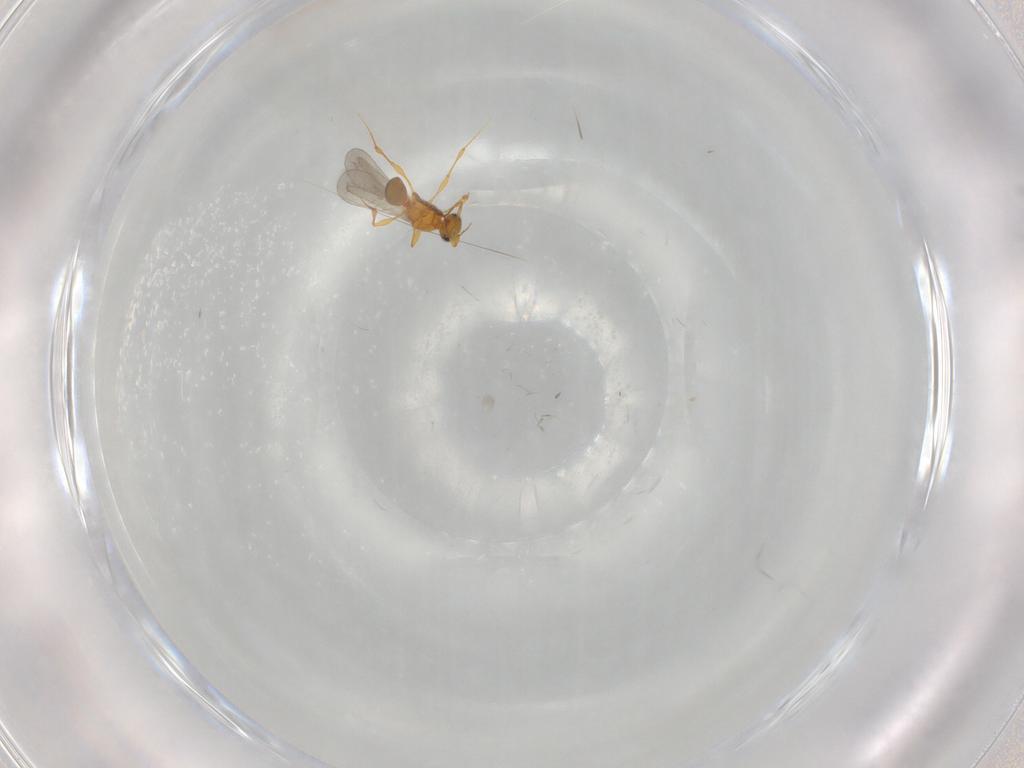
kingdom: Animalia
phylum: Arthropoda
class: Insecta
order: Hymenoptera
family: Platygastridae
